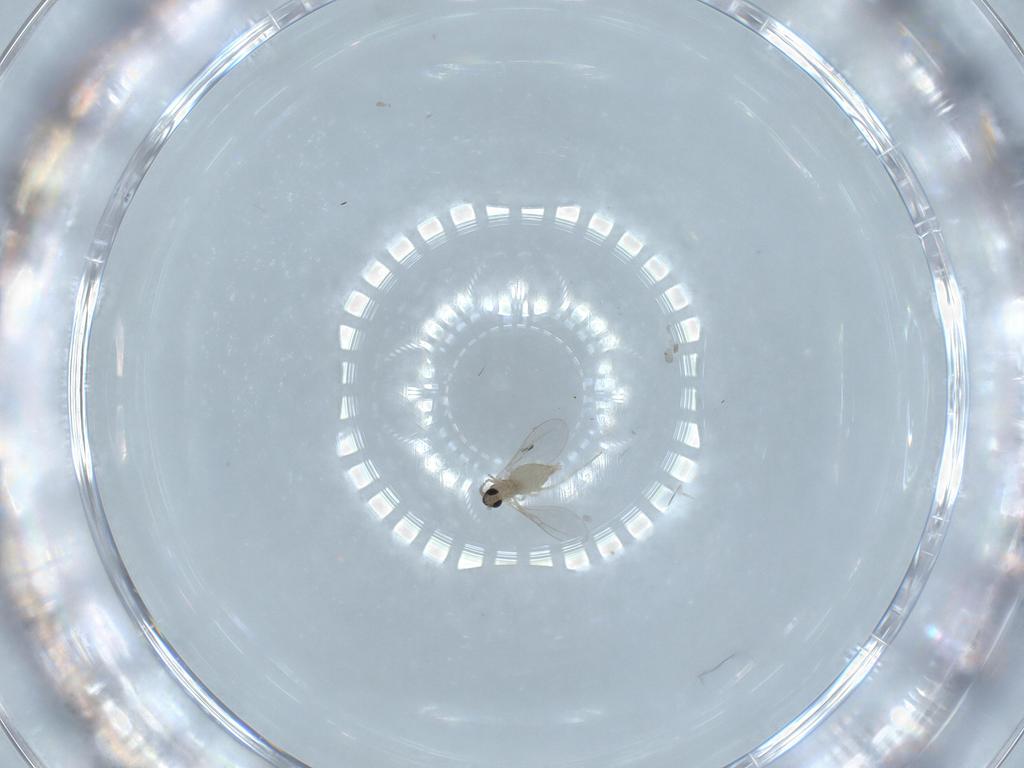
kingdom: Animalia
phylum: Arthropoda
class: Insecta
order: Diptera
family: Cecidomyiidae
